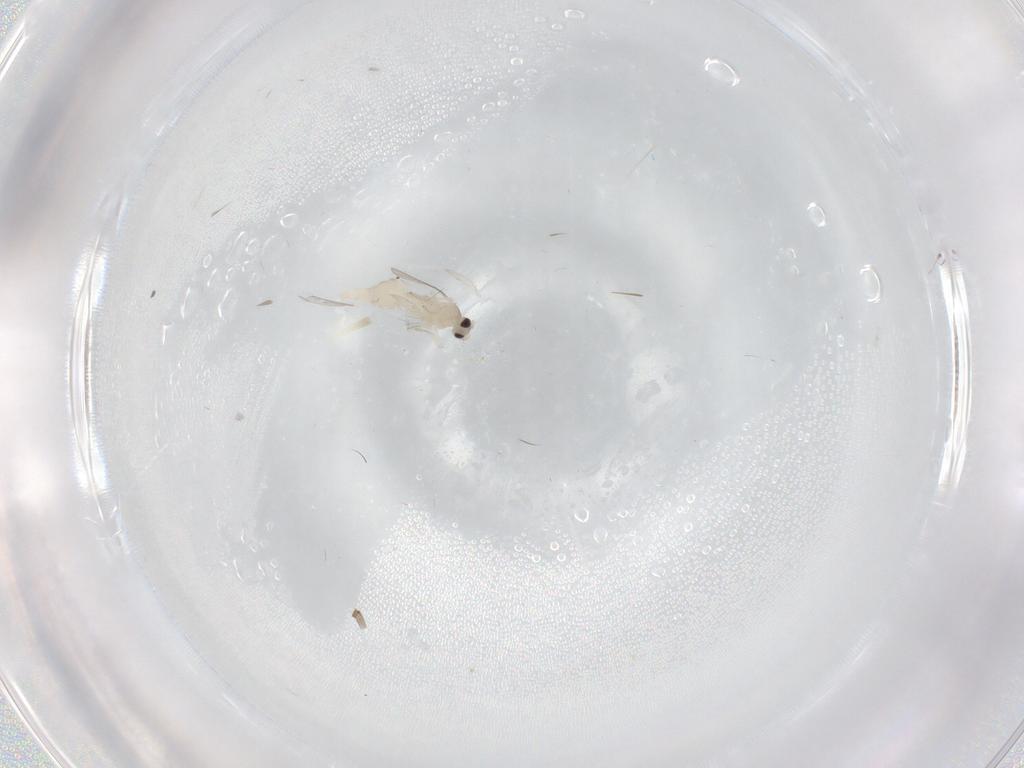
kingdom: Animalia
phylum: Arthropoda
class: Insecta
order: Diptera
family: Cecidomyiidae
